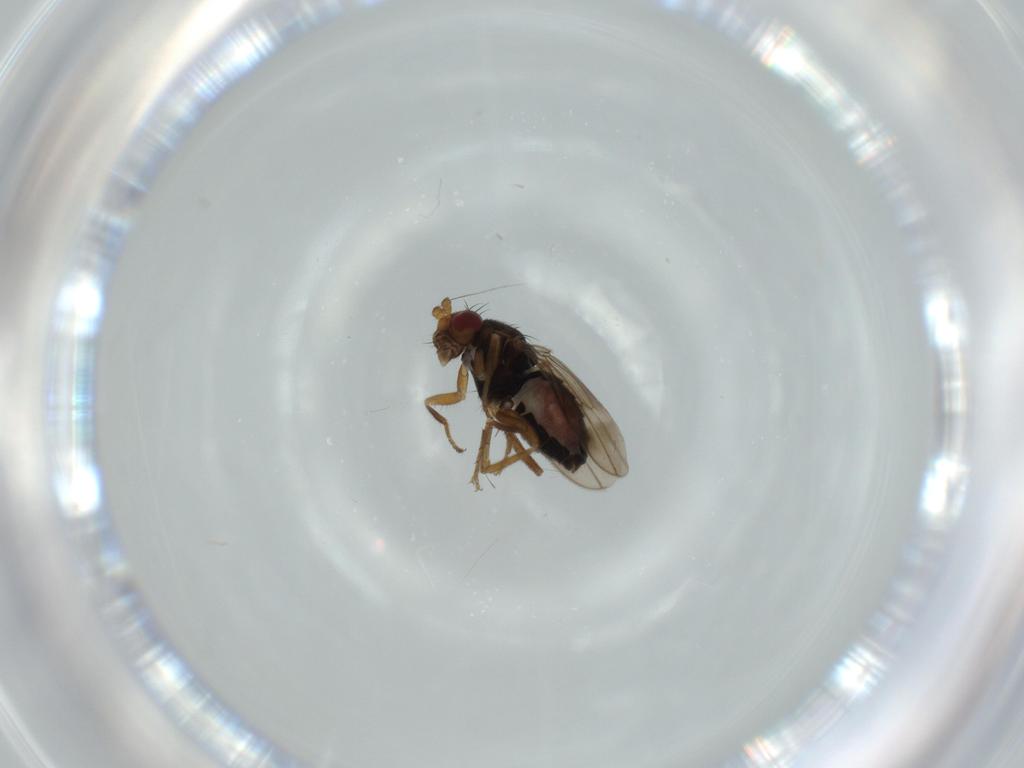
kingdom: Animalia
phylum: Arthropoda
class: Insecta
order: Diptera
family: Sphaeroceridae
